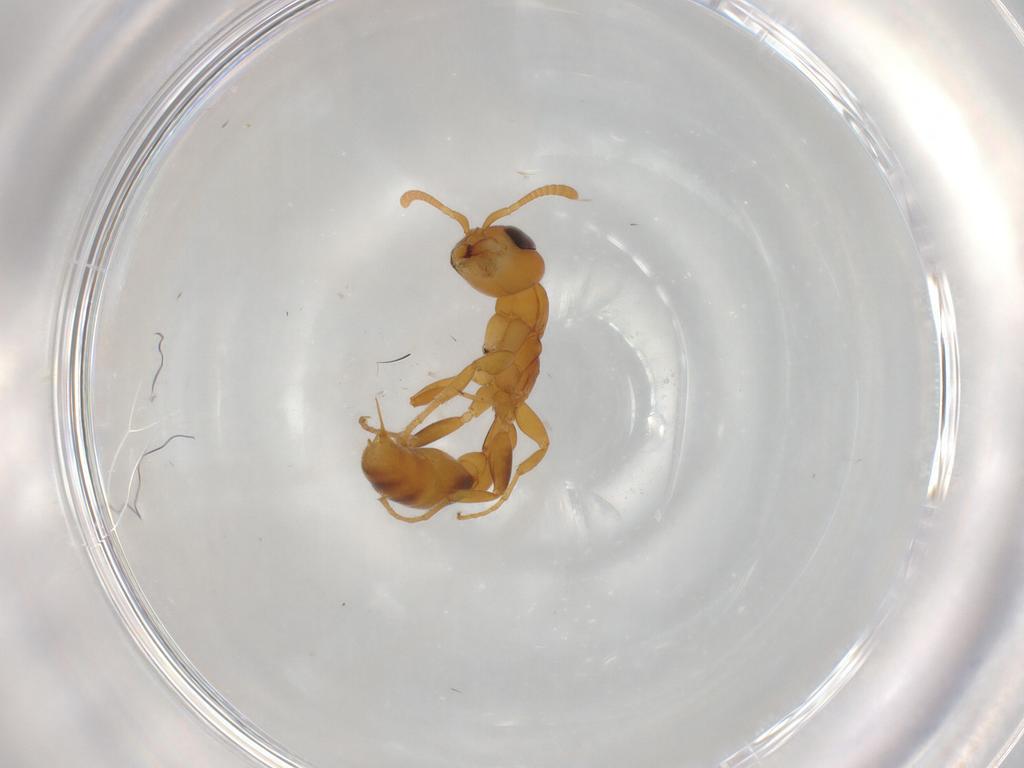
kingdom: Animalia
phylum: Arthropoda
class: Insecta
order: Hymenoptera
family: Formicidae
